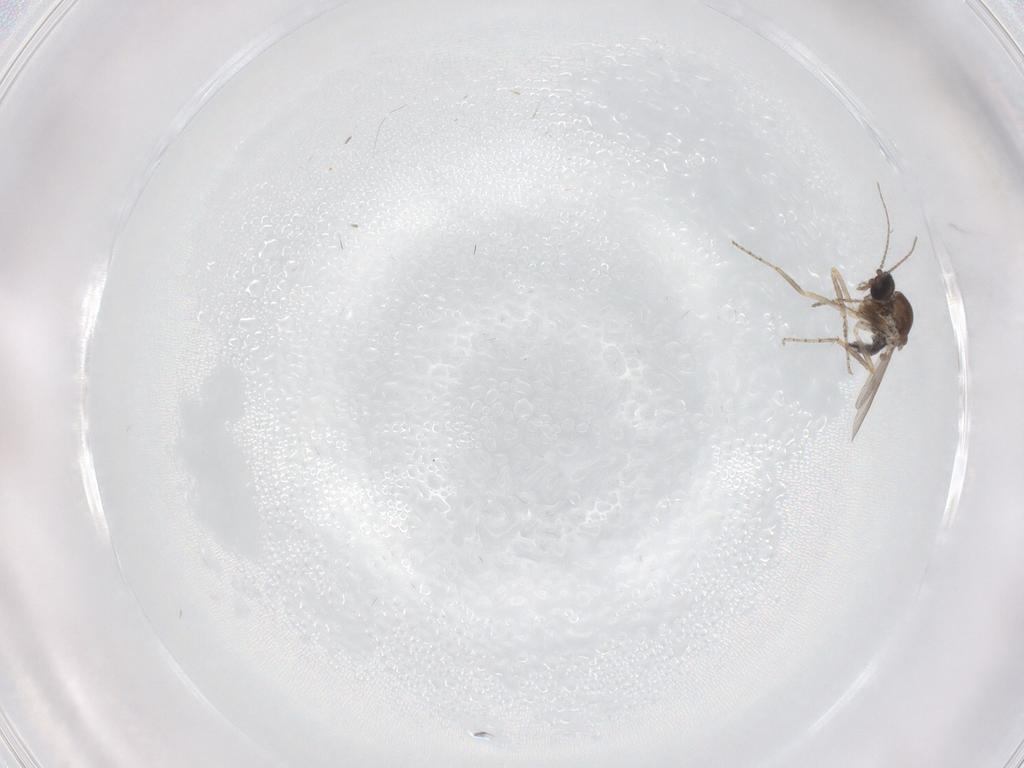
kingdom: Animalia
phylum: Arthropoda
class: Insecta
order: Diptera
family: Ceratopogonidae
